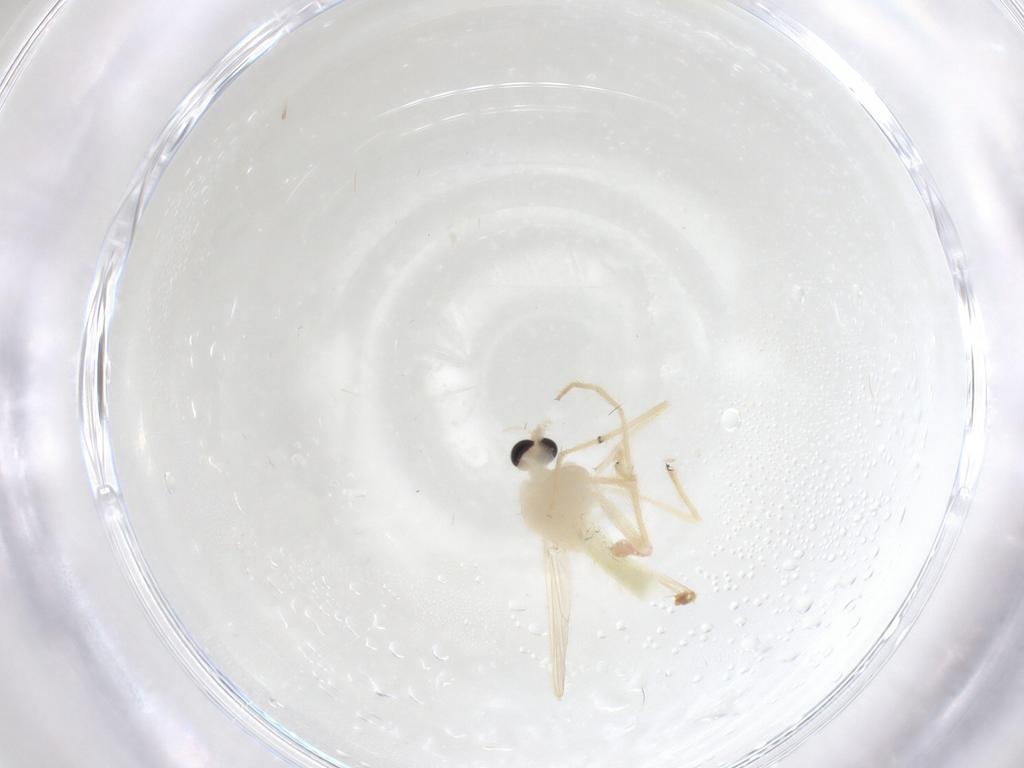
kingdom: Animalia
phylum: Arthropoda
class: Insecta
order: Diptera
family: Chironomidae
